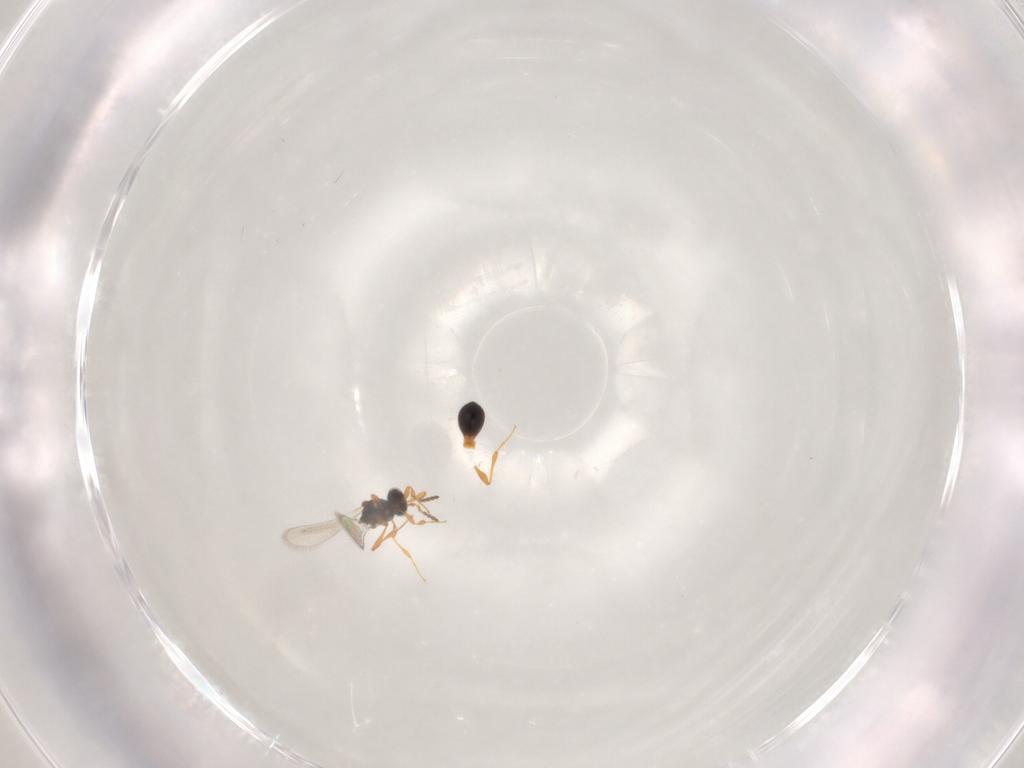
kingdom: Animalia
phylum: Arthropoda
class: Insecta
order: Hymenoptera
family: Platygastridae
